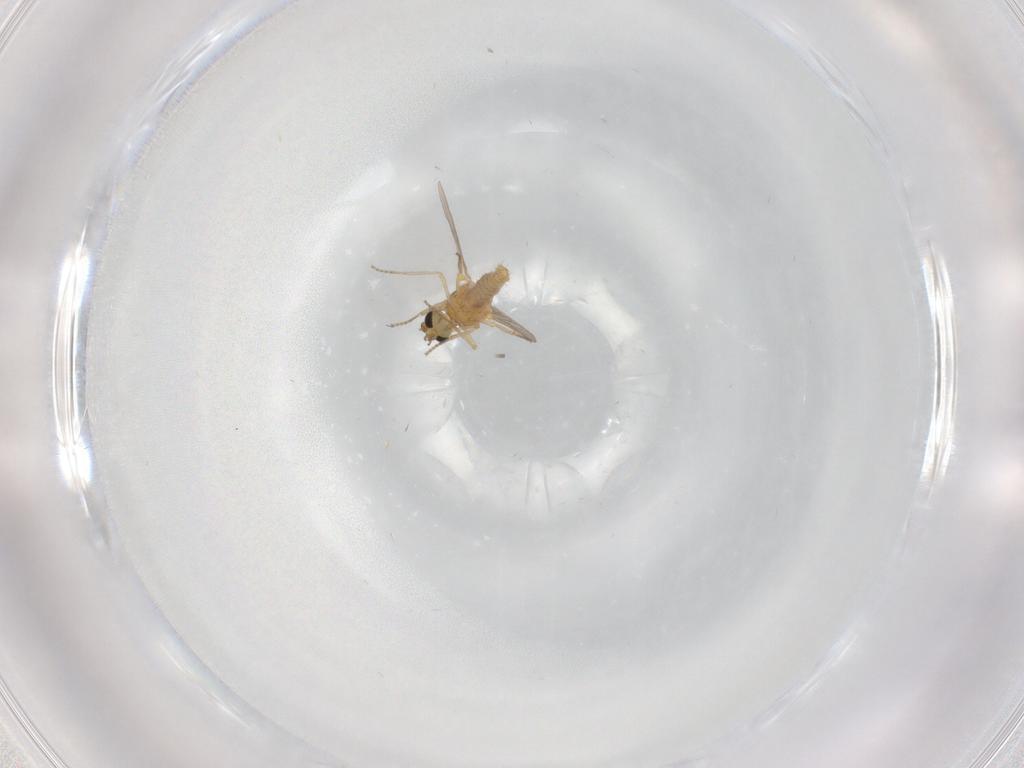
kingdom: Animalia
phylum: Arthropoda
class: Insecta
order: Diptera
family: Ceratopogonidae
